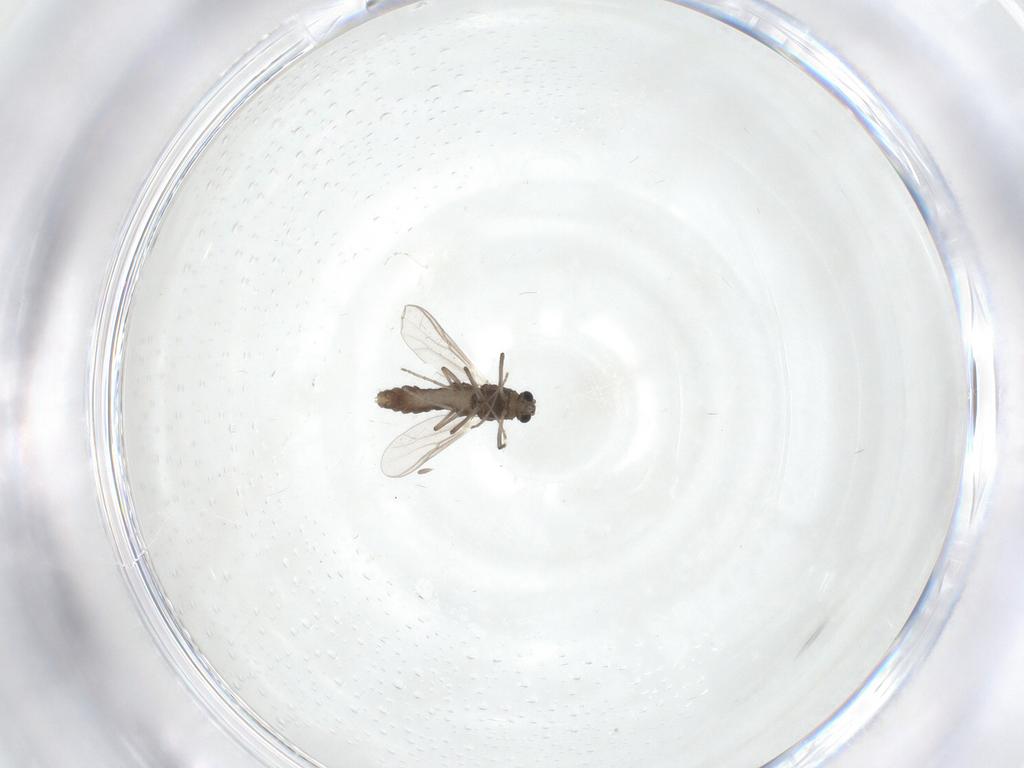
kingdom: Animalia
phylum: Arthropoda
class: Insecta
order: Diptera
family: Chironomidae
